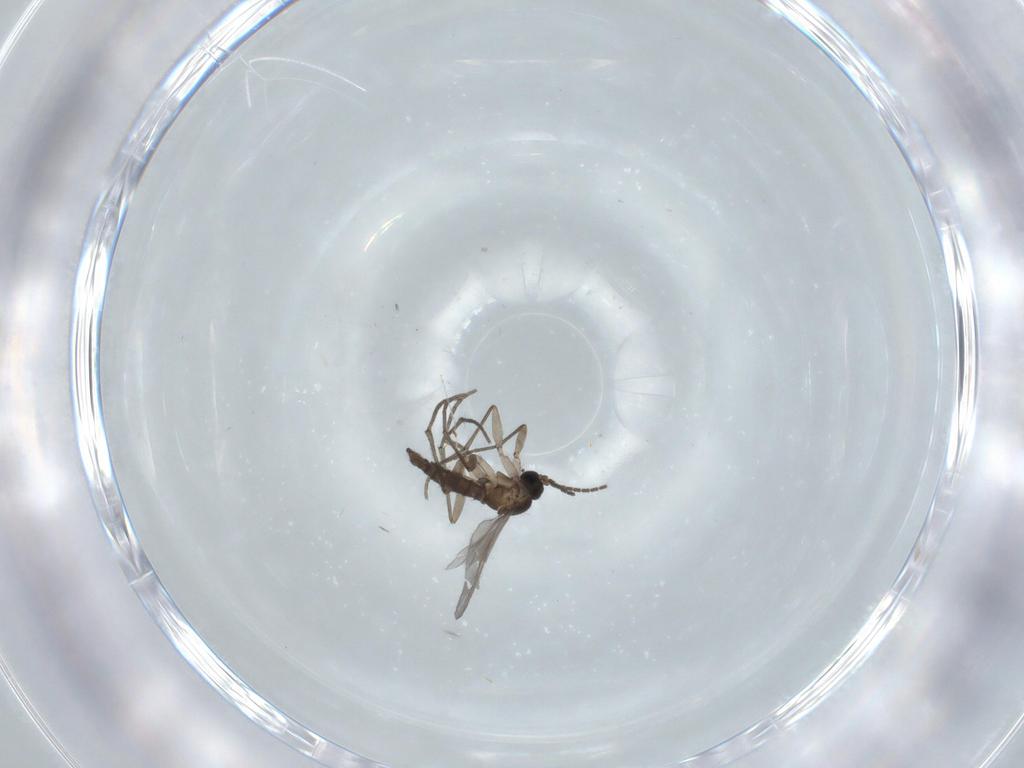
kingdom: Animalia
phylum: Arthropoda
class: Insecta
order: Diptera
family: Sciaridae
